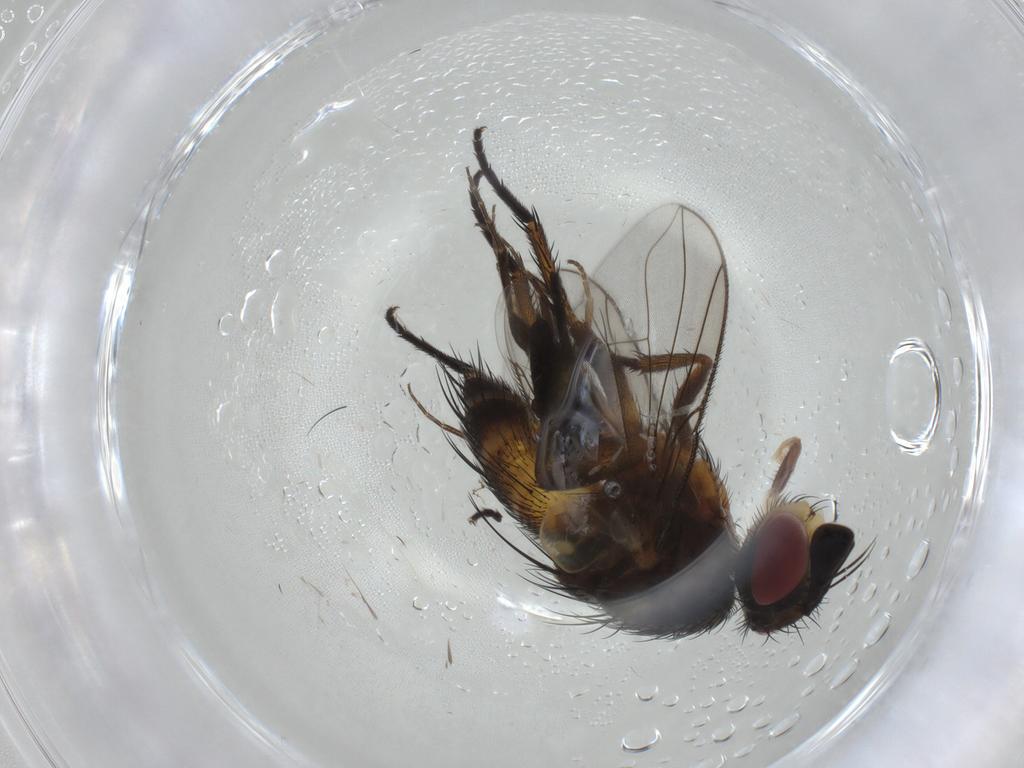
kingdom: Animalia
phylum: Arthropoda
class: Insecta
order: Diptera
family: Tachinidae
